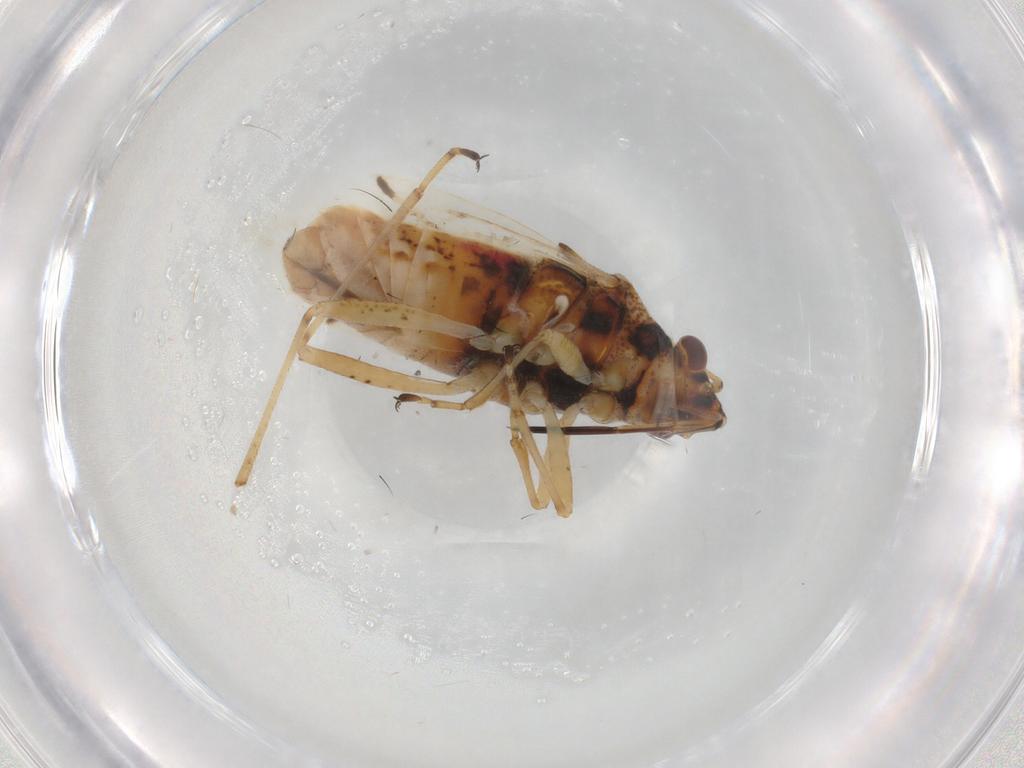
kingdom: Animalia
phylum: Arthropoda
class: Insecta
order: Hemiptera
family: Lygaeidae
